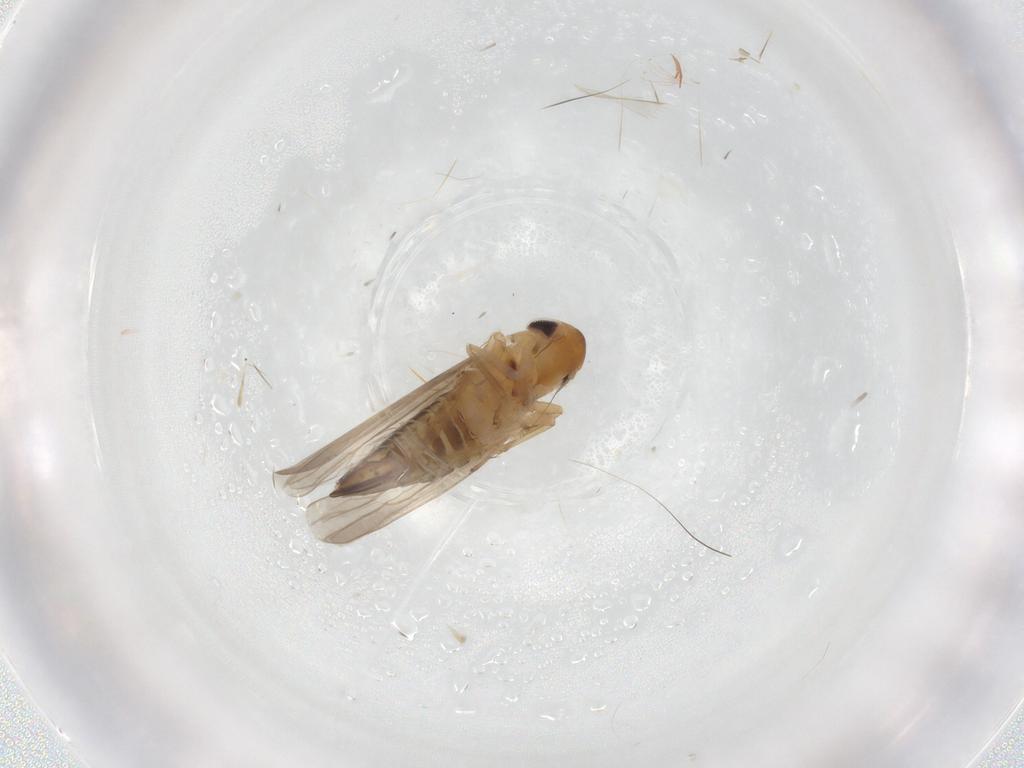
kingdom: Animalia
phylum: Arthropoda
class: Insecta
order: Hemiptera
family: Cicadellidae
